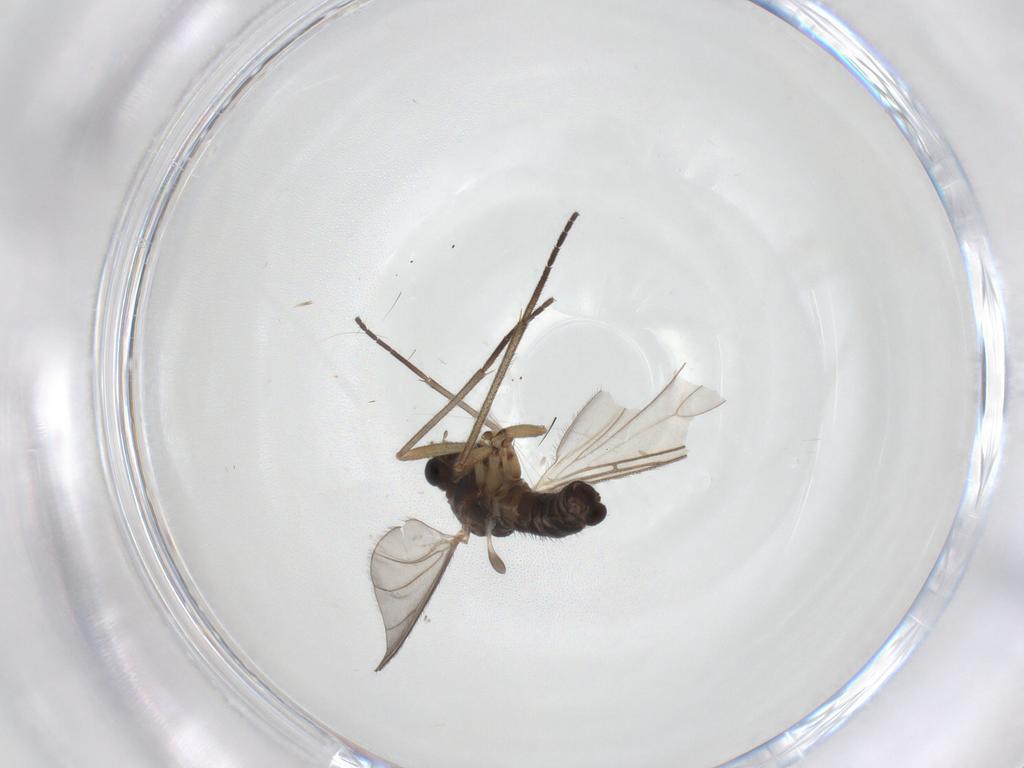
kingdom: Animalia
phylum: Arthropoda
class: Insecta
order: Diptera
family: Sciaridae
